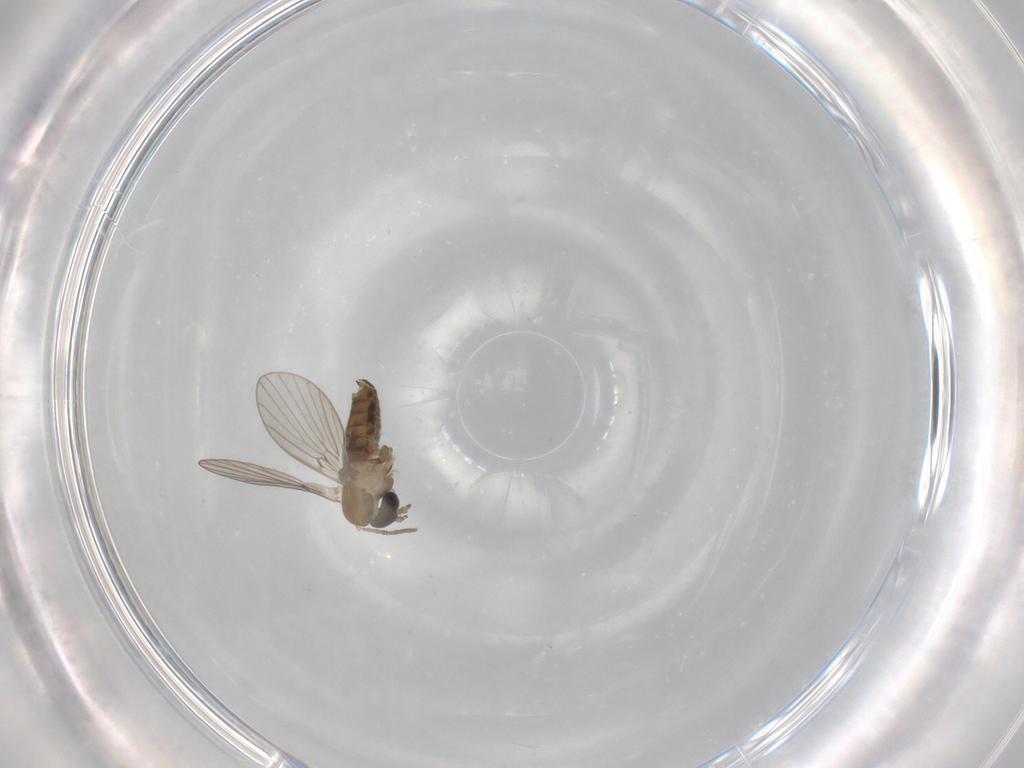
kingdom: Animalia
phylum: Arthropoda
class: Insecta
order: Diptera
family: Psychodidae
